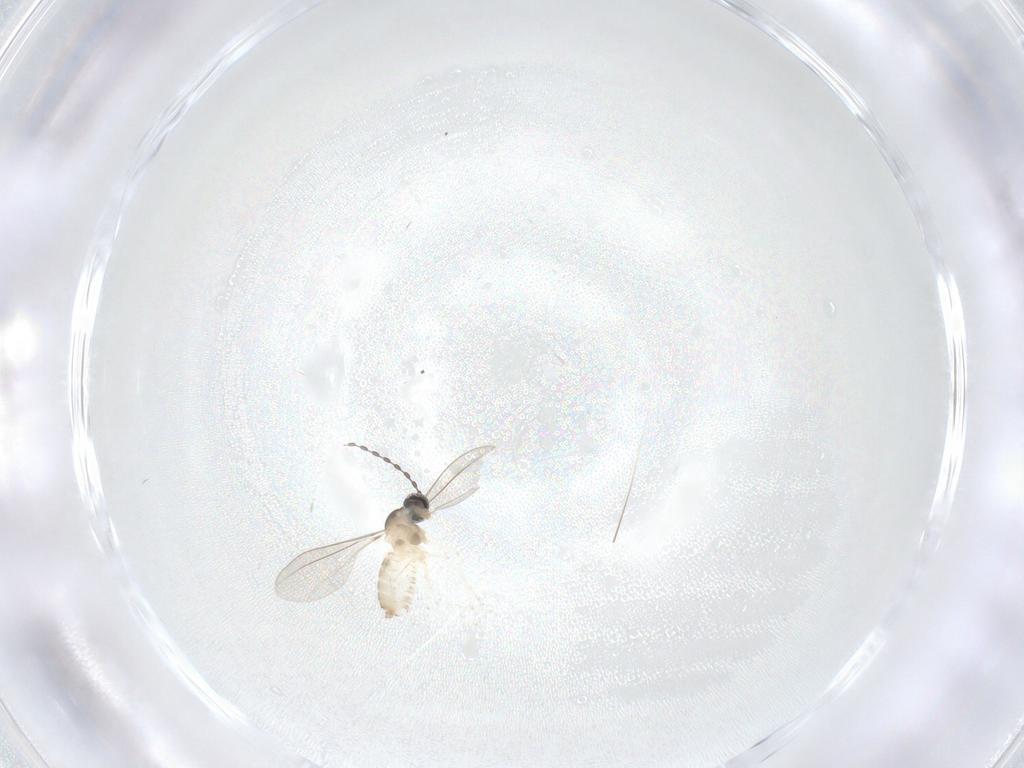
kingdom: Animalia
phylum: Arthropoda
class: Insecta
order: Diptera
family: Cecidomyiidae
